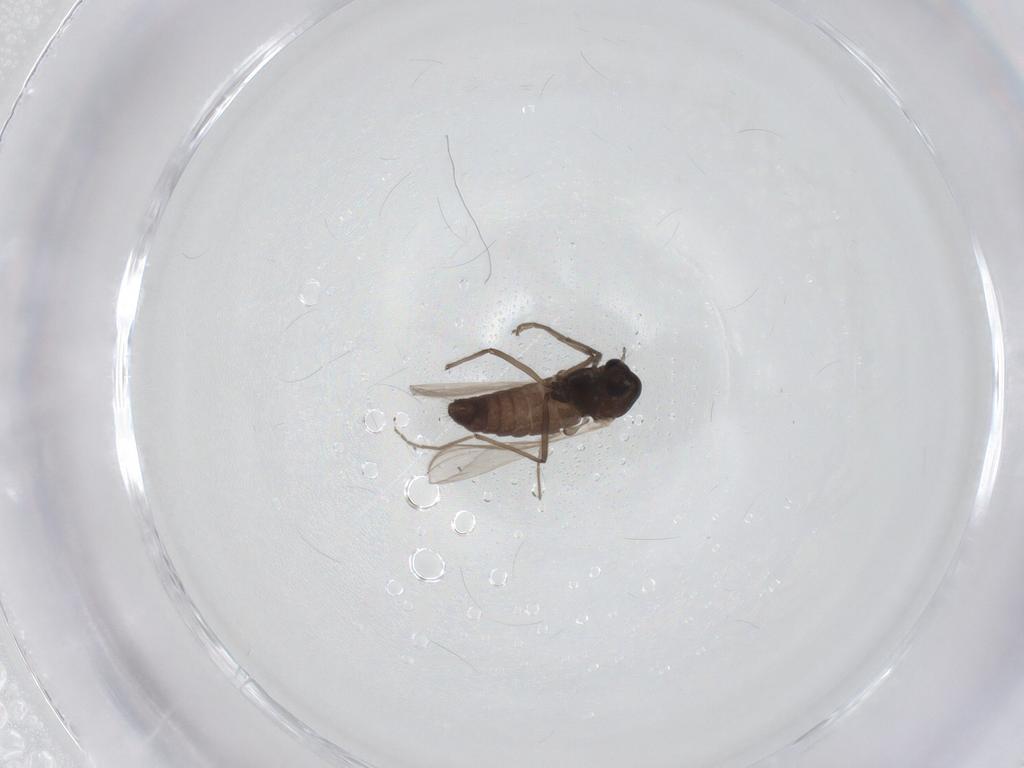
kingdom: Animalia
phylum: Arthropoda
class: Insecta
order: Diptera
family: Chironomidae
